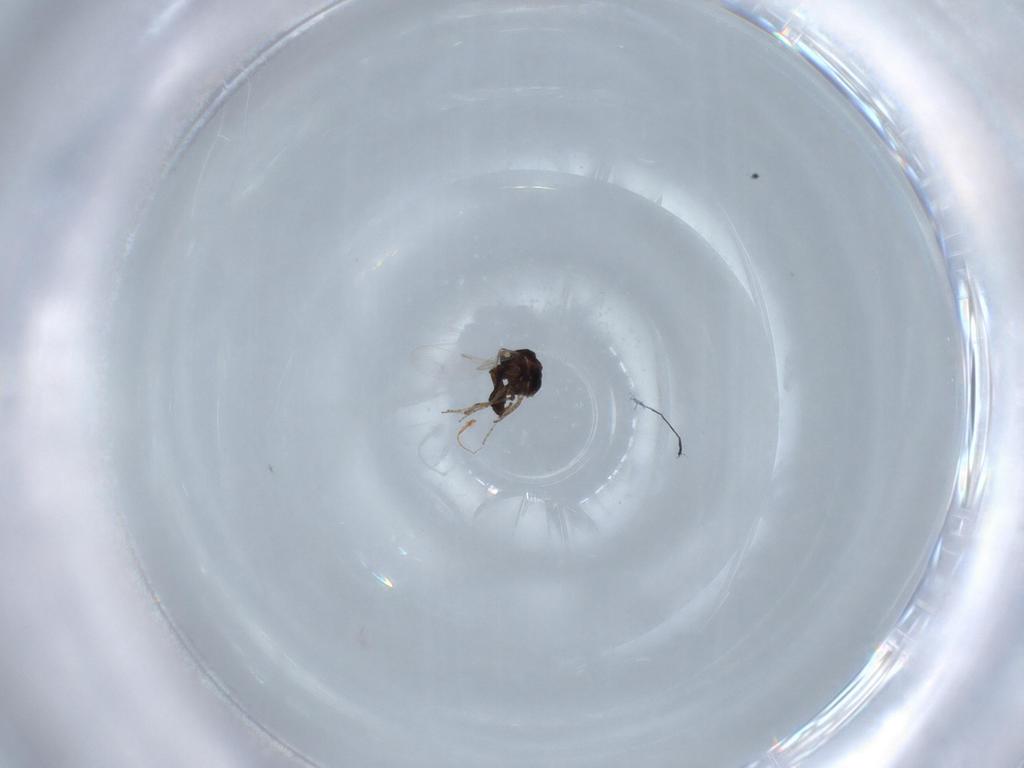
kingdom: Animalia
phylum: Arthropoda
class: Insecta
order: Diptera
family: Ceratopogonidae
